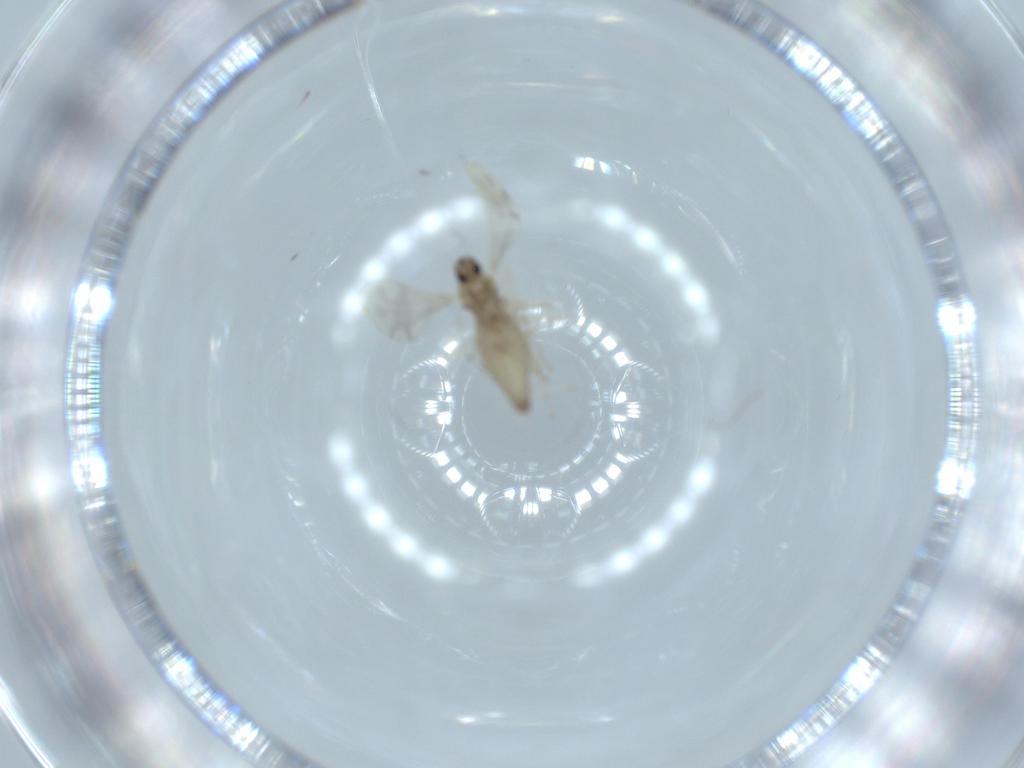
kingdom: Animalia
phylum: Arthropoda
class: Insecta
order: Diptera
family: Cecidomyiidae
